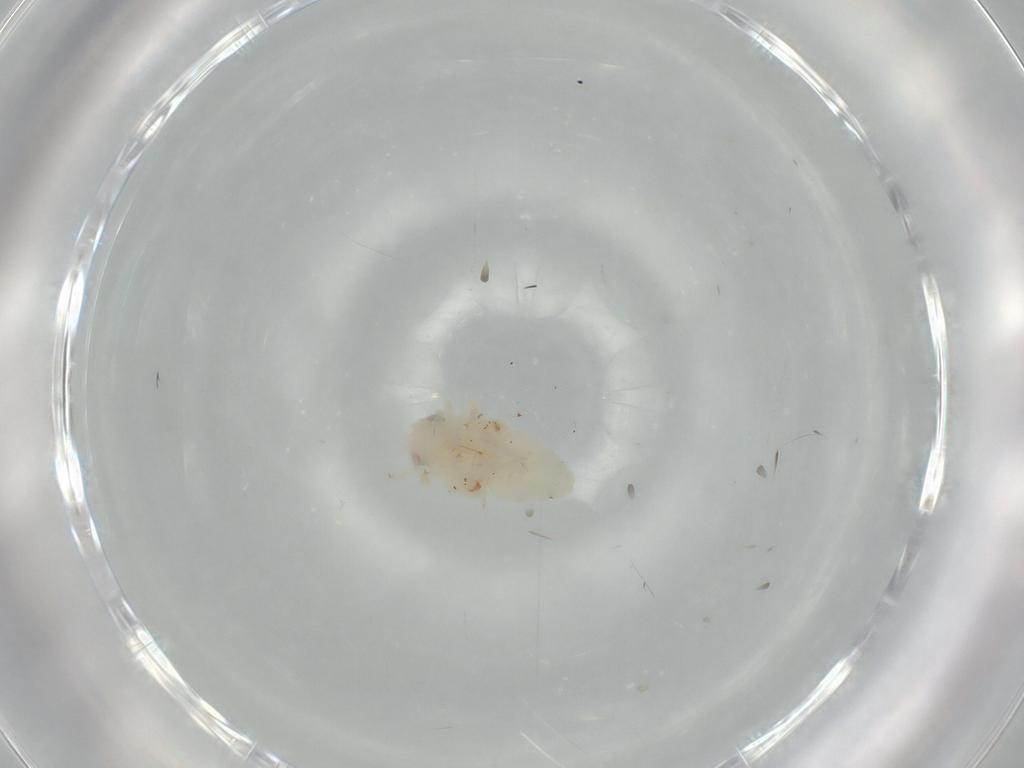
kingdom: Animalia
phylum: Arthropoda
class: Insecta
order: Hemiptera
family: Nogodinidae
